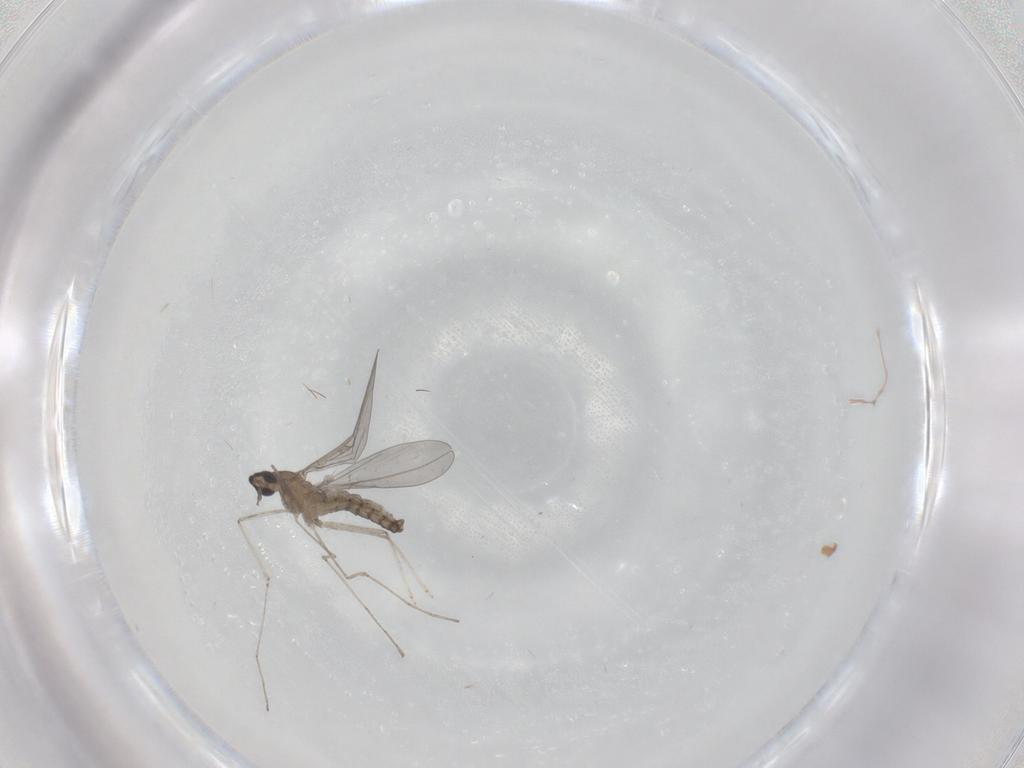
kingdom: Animalia
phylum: Arthropoda
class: Insecta
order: Diptera
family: Cecidomyiidae
